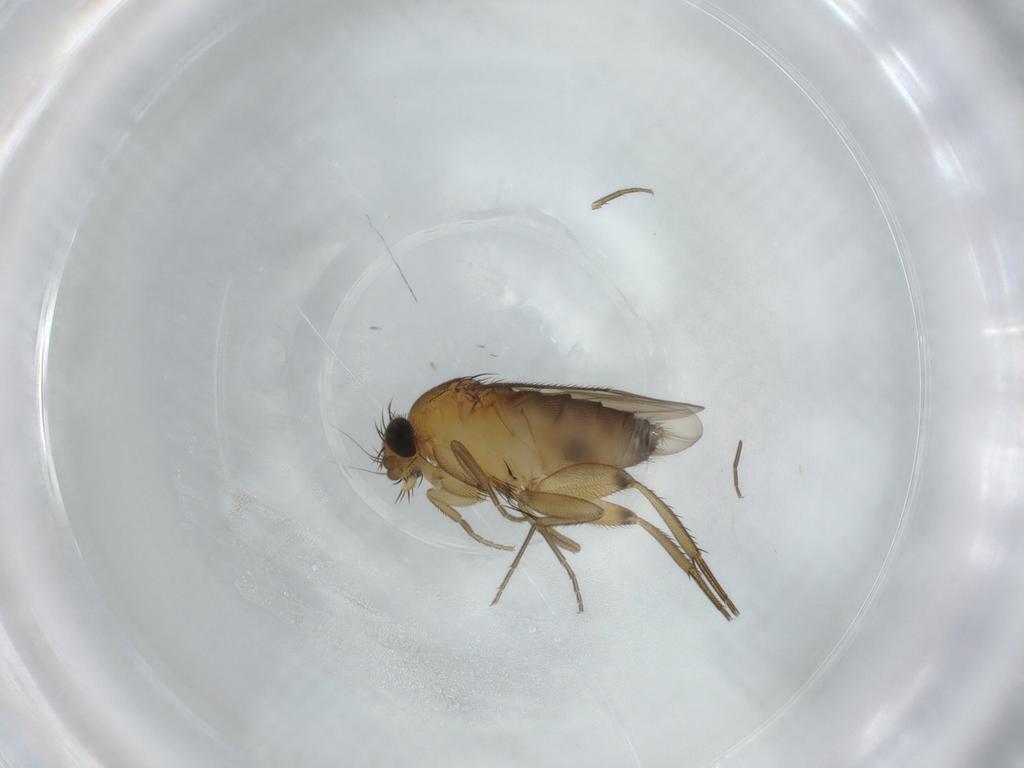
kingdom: Animalia
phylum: Arthropoda
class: Insecta
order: Diptera
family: Phoridae
